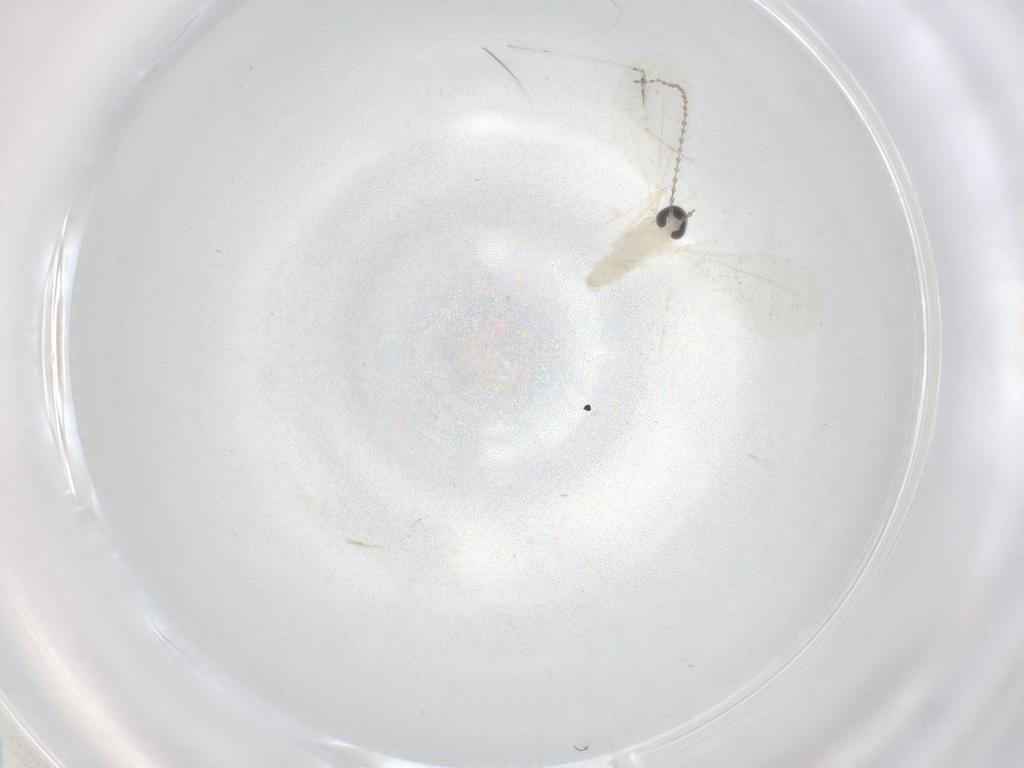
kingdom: Animalia
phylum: Arthropoda
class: Insecta
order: Diptera
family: Cecidomyiidae
